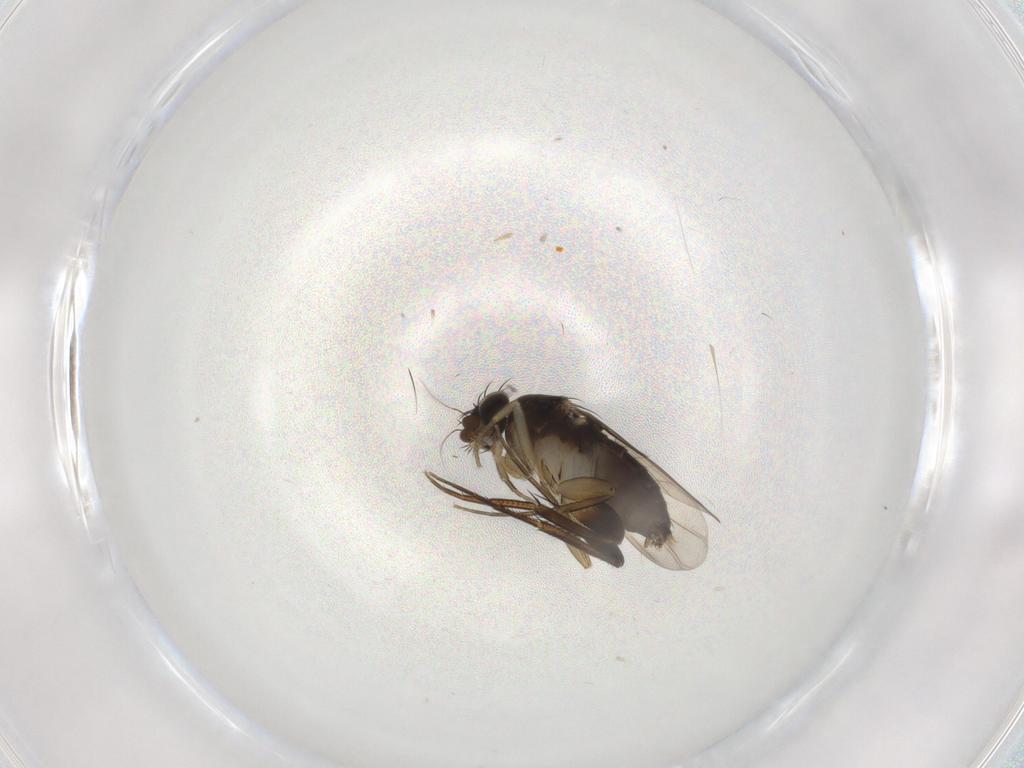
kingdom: Animalia
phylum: Arthropoda
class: Insecta
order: Diptera
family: Phoridae
